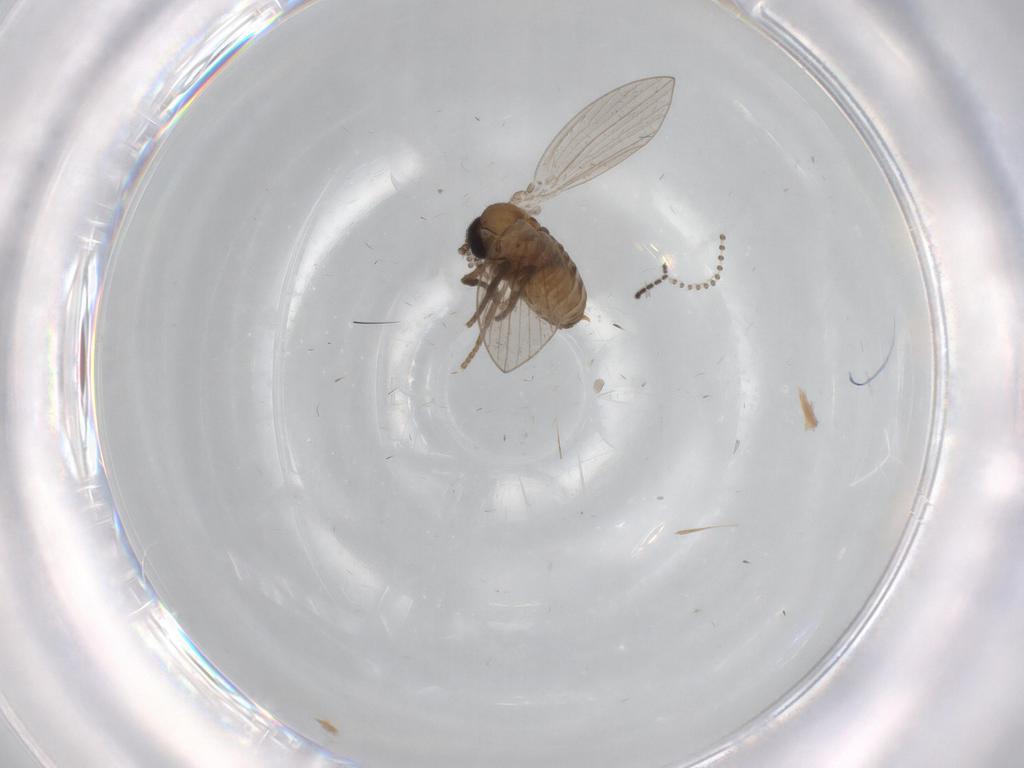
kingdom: Animalia
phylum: Arthropoda
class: Insecta
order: Diptera
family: Psychodidae
